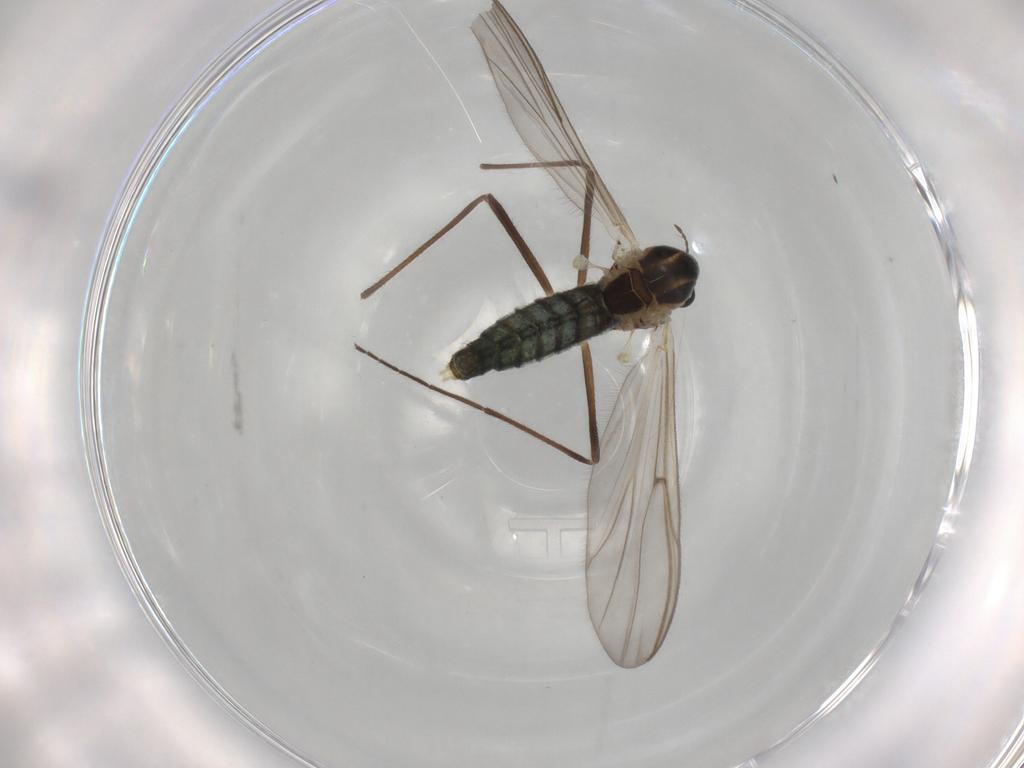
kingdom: Animalia
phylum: Arthropoda
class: Insecta
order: Diptera
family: Chironomidae
